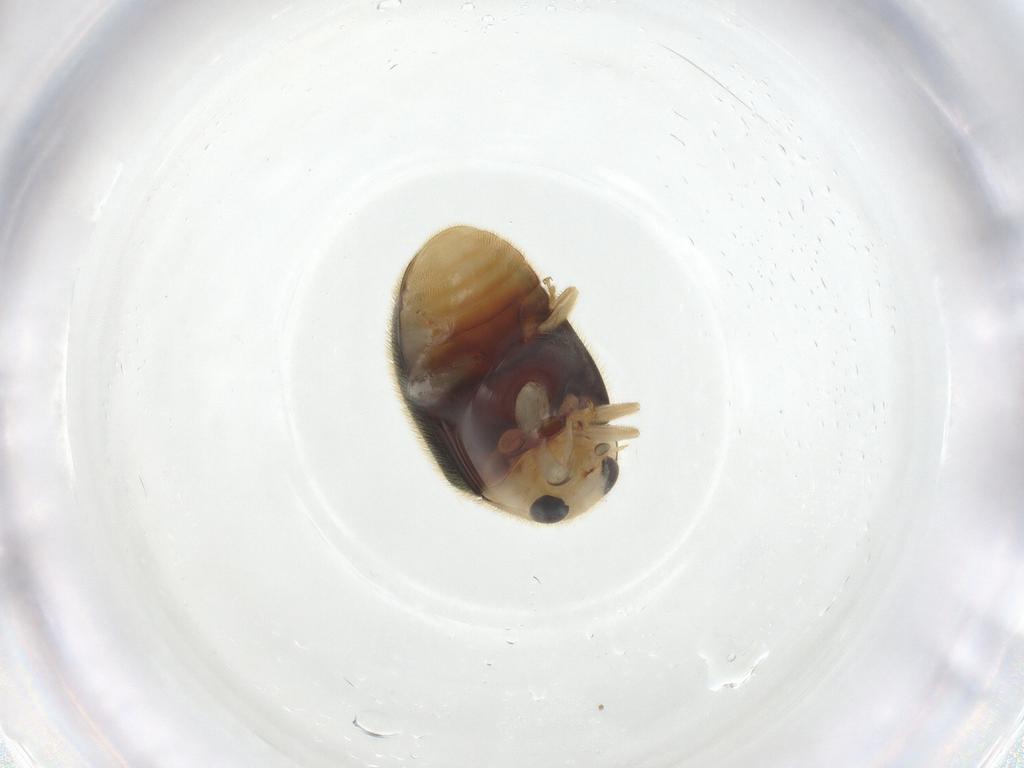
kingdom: Animalia
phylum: Arthropoda
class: Insecta
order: Coleoptera
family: Coccinellidae
